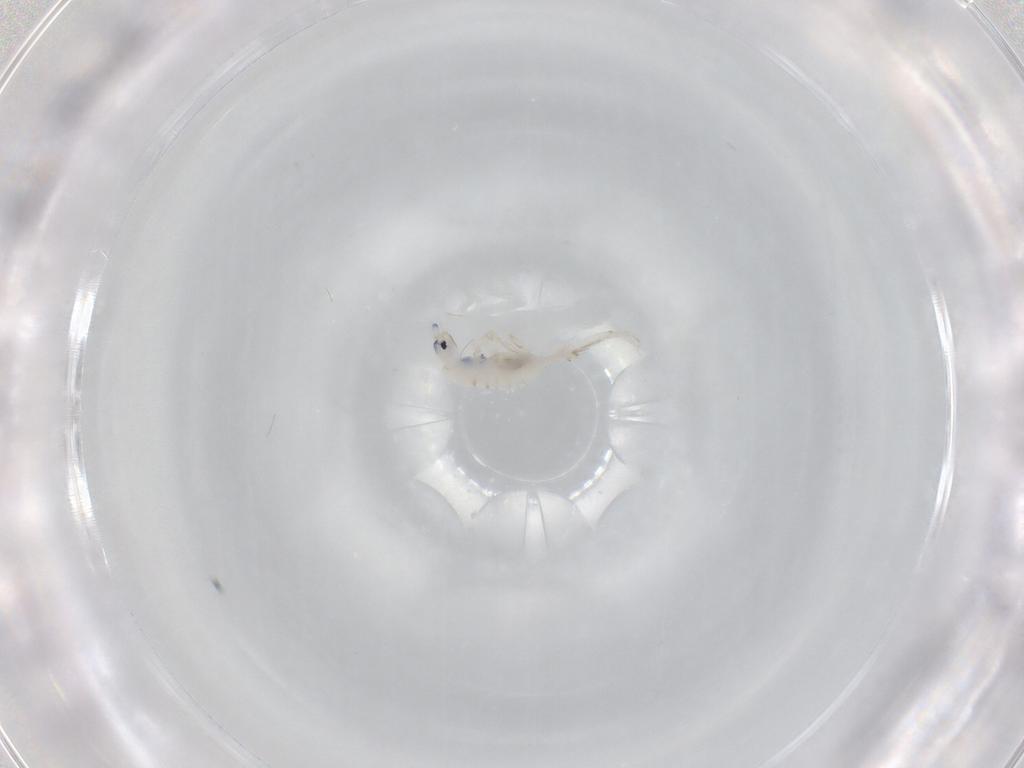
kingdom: Animalia
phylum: Arthropoda
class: Collembola
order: Entomobryomorpha
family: Entomobryidae
